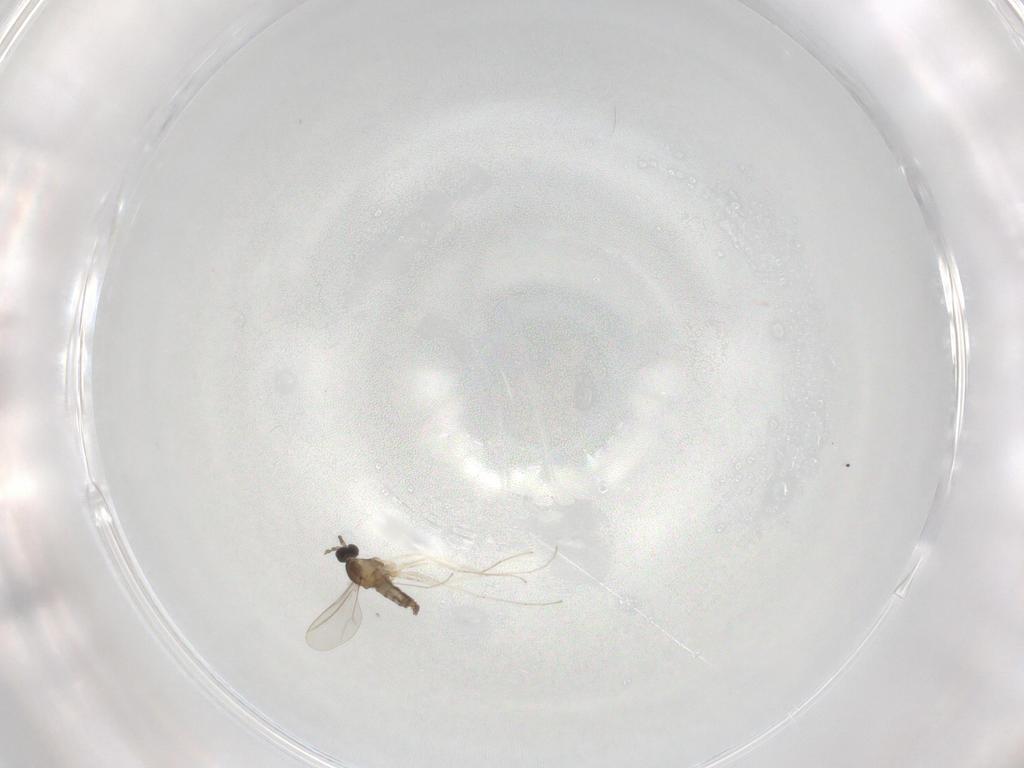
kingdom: Animalia
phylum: Arthropoda
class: Insecta
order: Diptera
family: Cecidomyiidae
